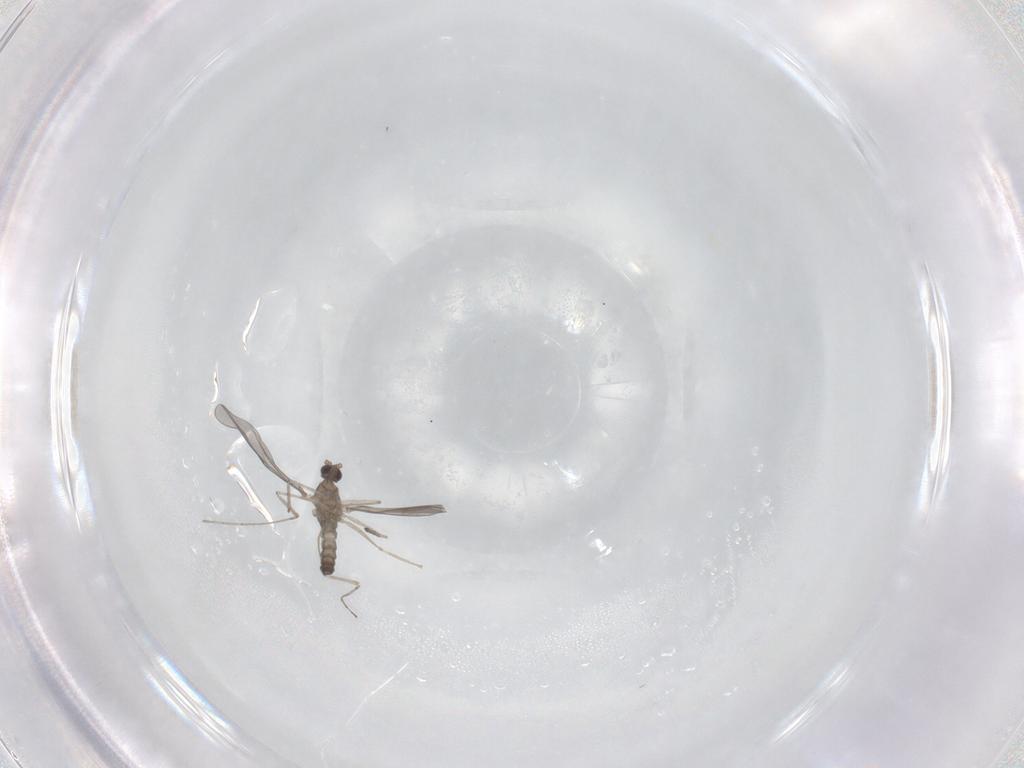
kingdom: Animalia
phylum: Arthropoda
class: Insecta
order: Diptera
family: Cecidomyiidae
